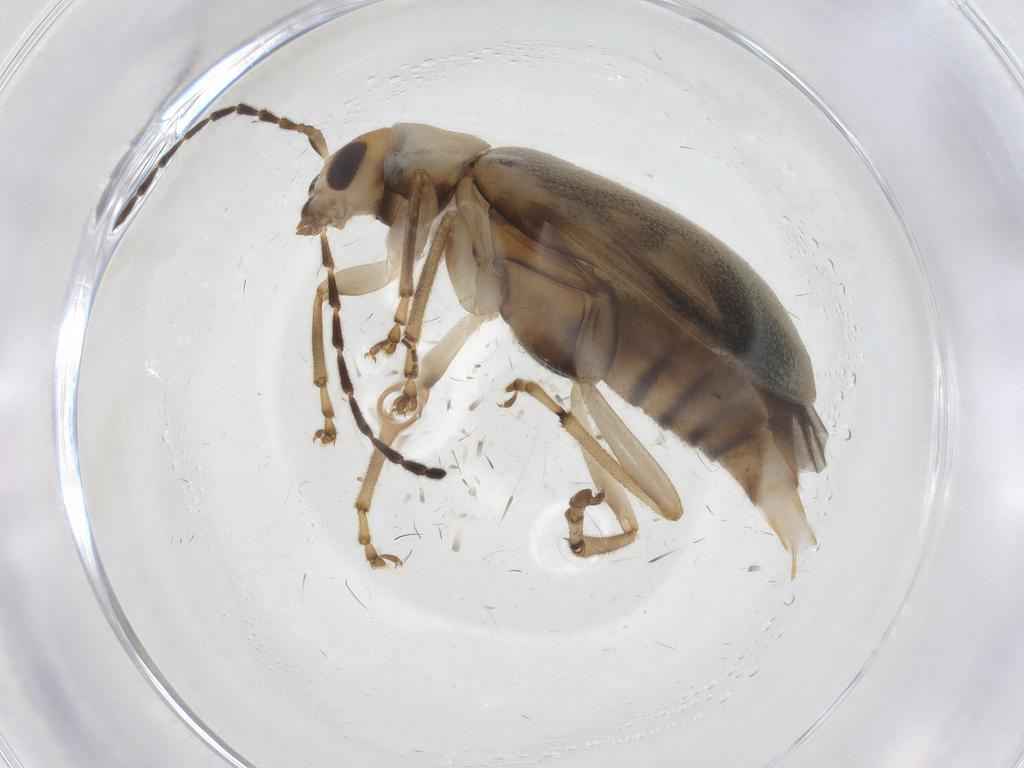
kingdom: Animalia
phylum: Arthropoda
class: Insecta
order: Coleoptera
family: Chrysomelidae
